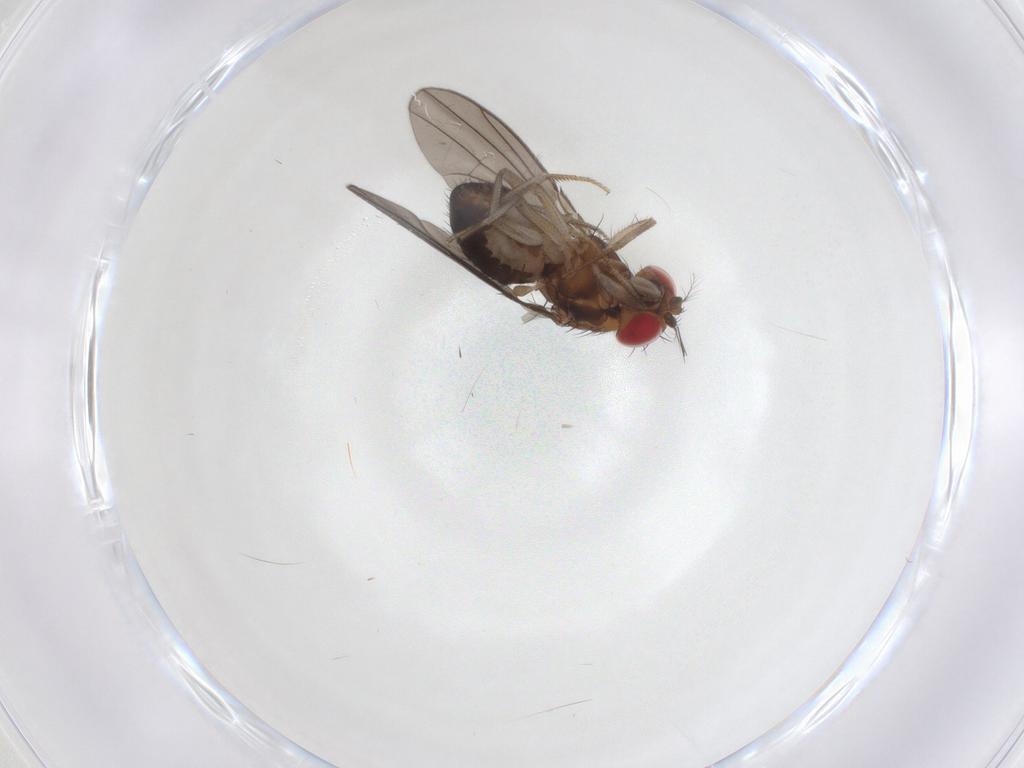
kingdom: Animalia
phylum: Arthropoda
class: Insecta
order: Diptera
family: Drosophilidae
